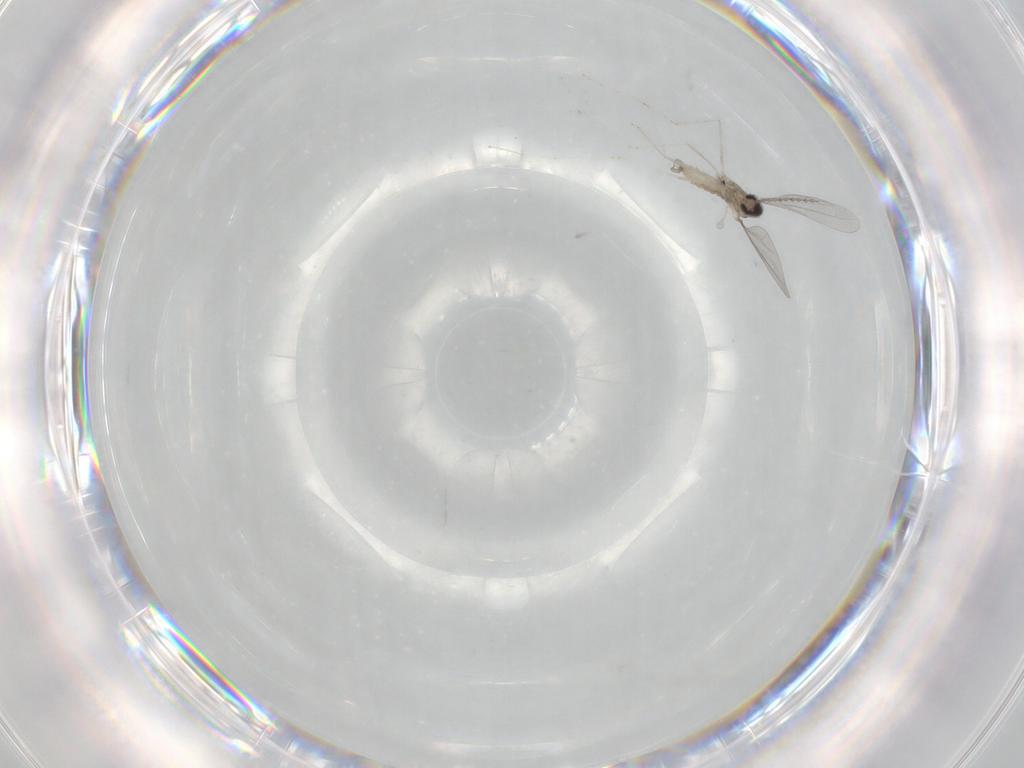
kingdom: Animalia
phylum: Arthropoda
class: Insecta
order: Diptera
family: Cecidomyiidae
